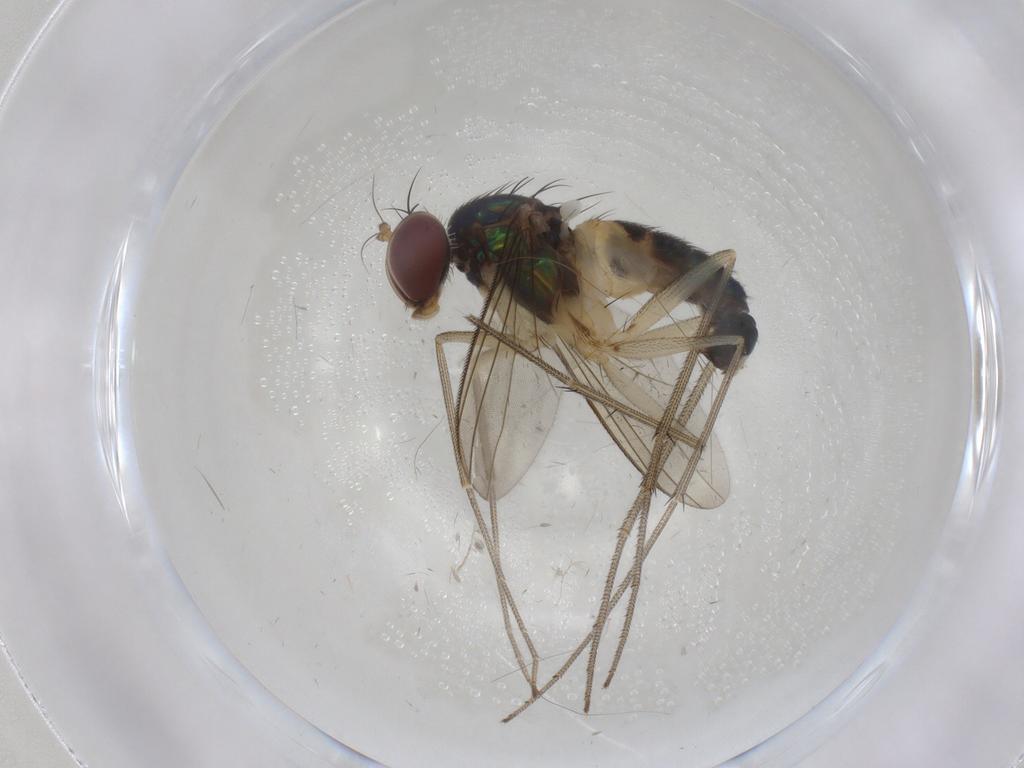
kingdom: Animalia
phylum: Arthropoda
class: Insecta
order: Diptera
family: Dolichopodidae
